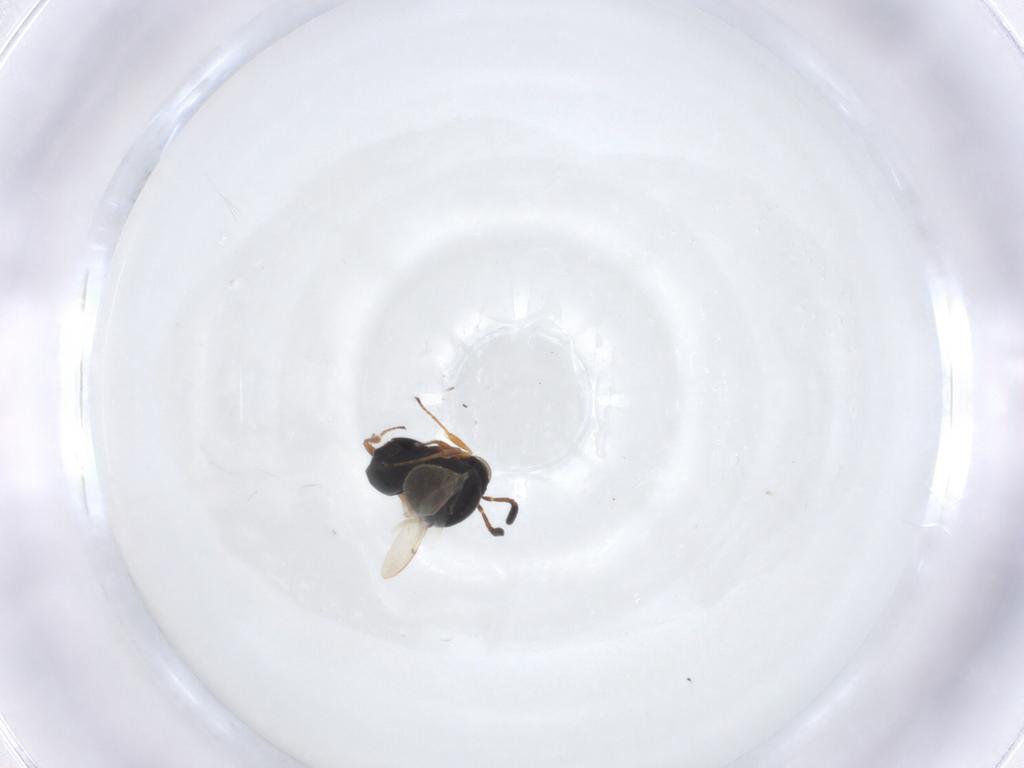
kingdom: Animalia
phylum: Arthropoda
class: Insecta
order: Hymenoptera
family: Scelionidae
